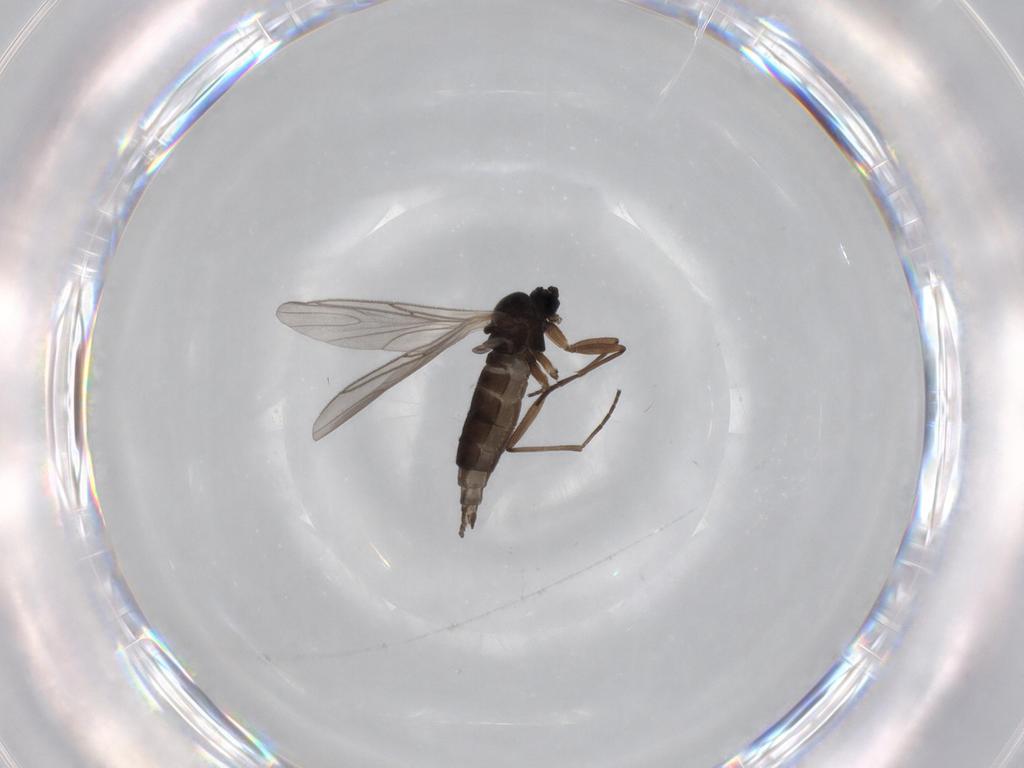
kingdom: Animalia
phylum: Arthropoda
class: Insecta
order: Diptera
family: Sciaridae
